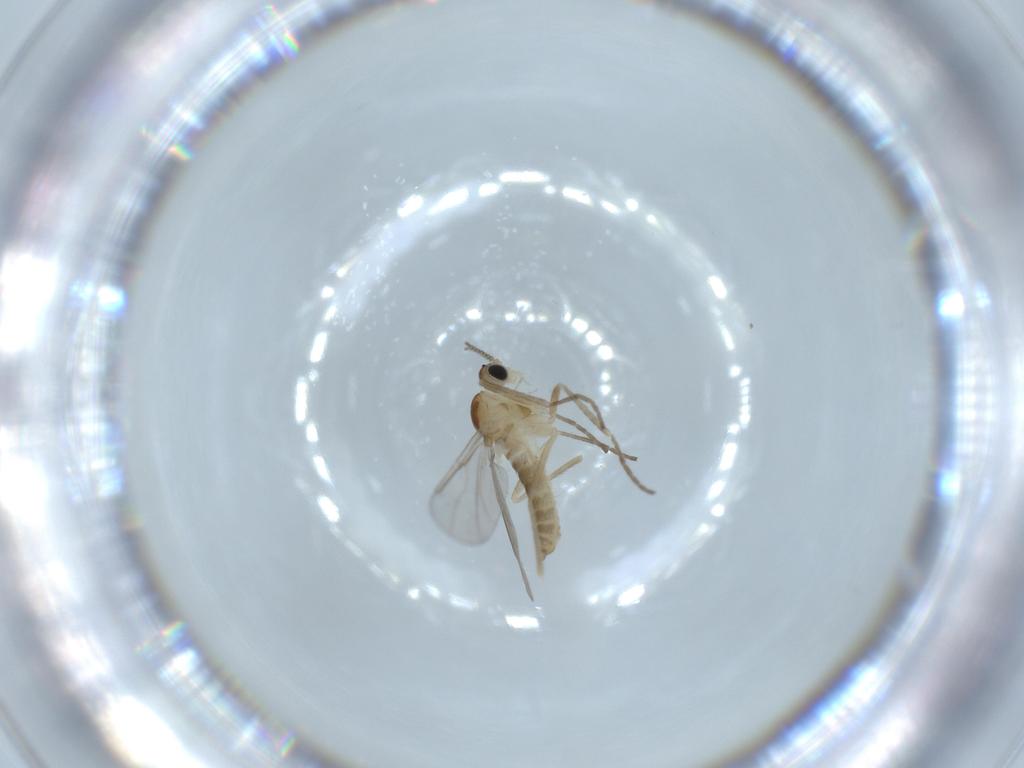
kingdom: Animalia
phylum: Arthropoda
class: Insecta
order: Diptera
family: Cecidomyiidae
